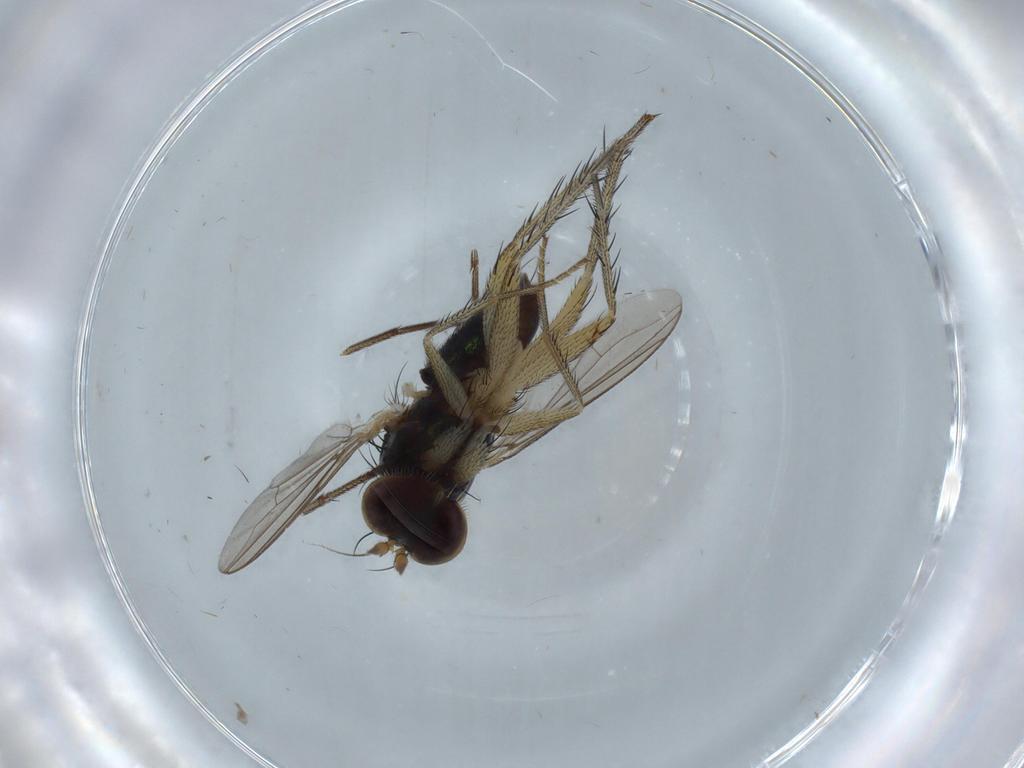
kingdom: Animalia
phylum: Arthropoda
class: Insecta
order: Diptera
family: Dolichopodidae
